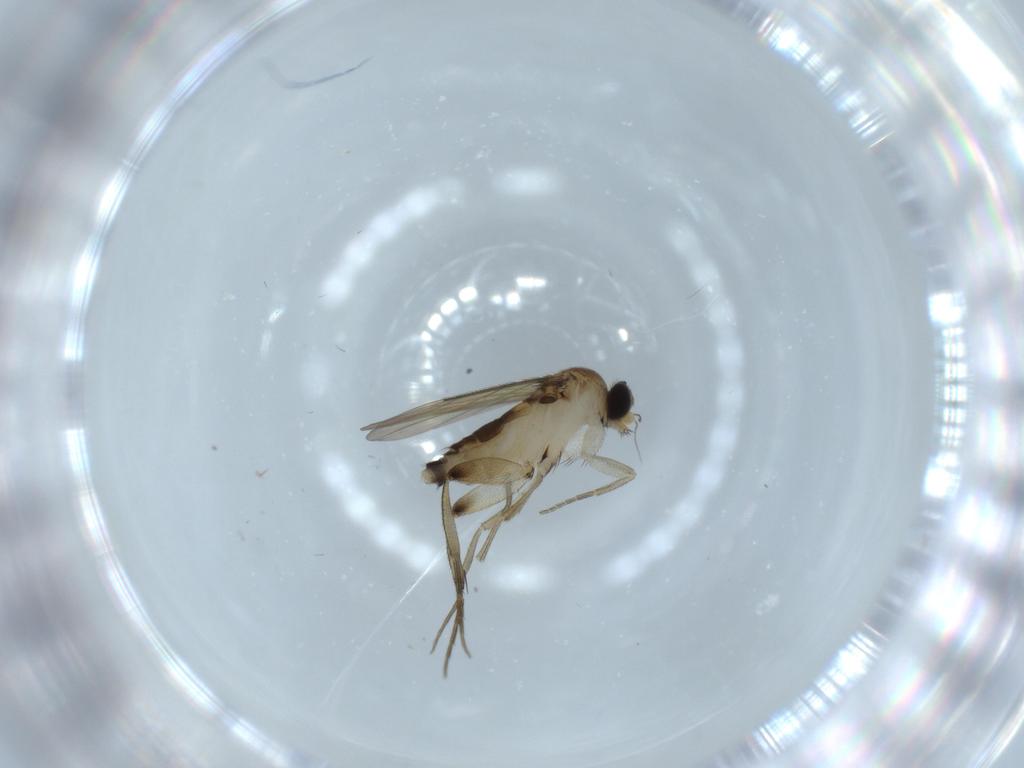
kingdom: Animalia
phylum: Arthropoda
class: Insecta
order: Diptera
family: Phoridae
